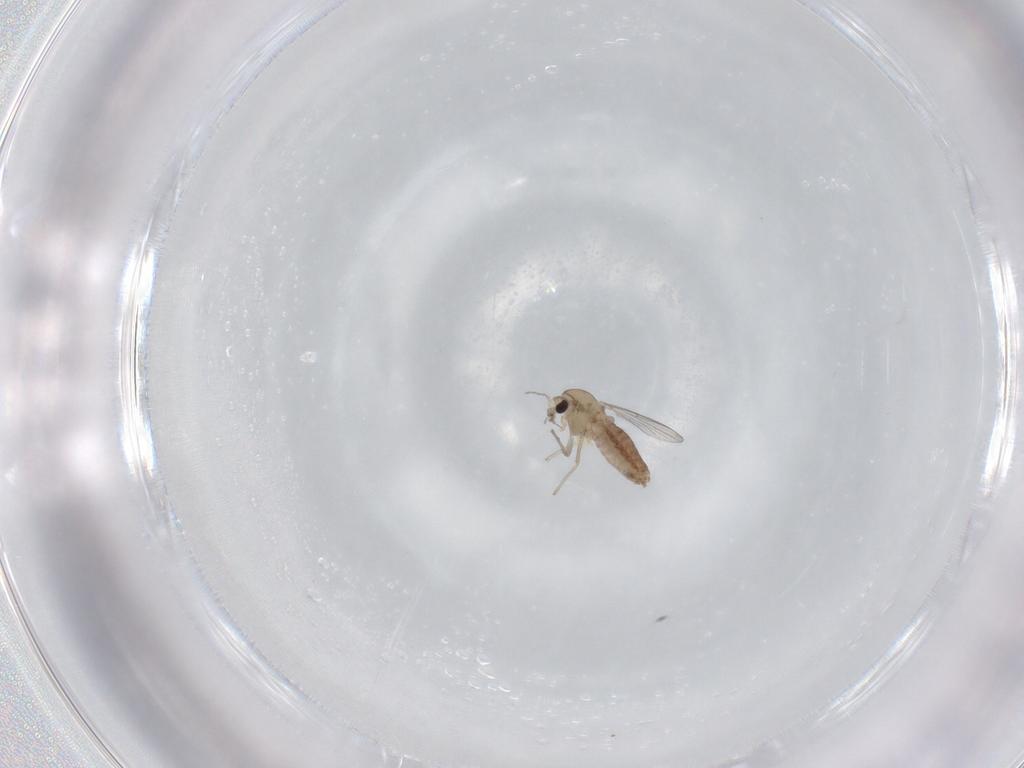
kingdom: Animalia
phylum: Arthropoda
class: Insecta
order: Diptera
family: Chironomidae
